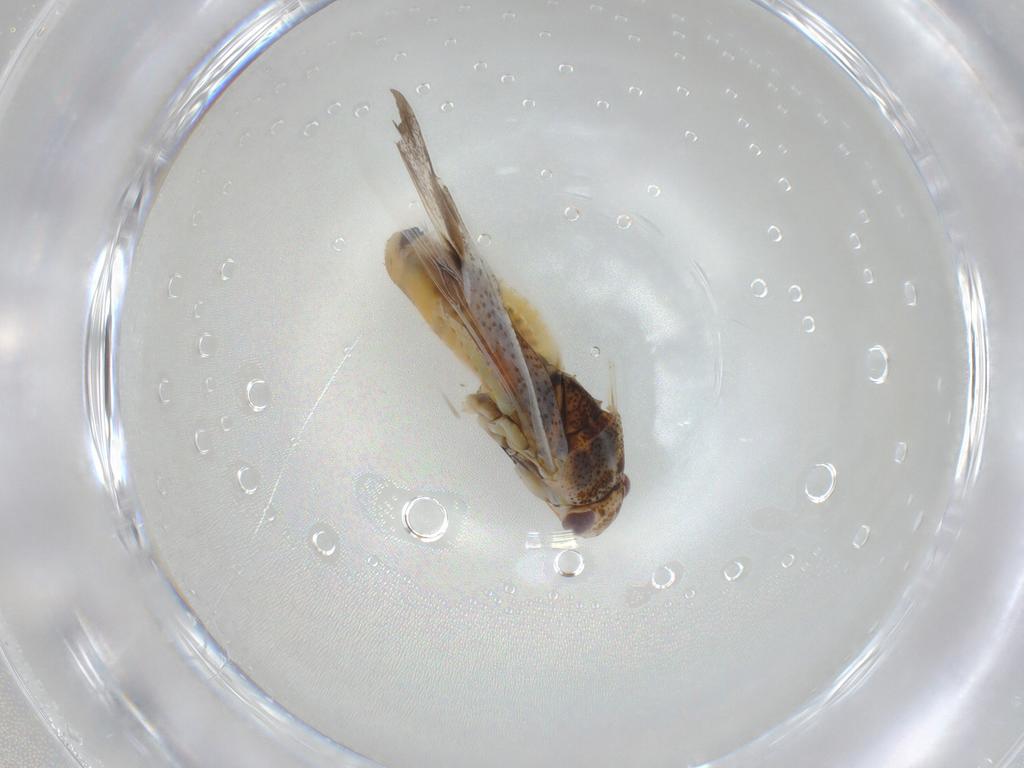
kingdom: Animalia
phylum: Arthropoda
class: Insecta
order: Hemiptera
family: Miridae
